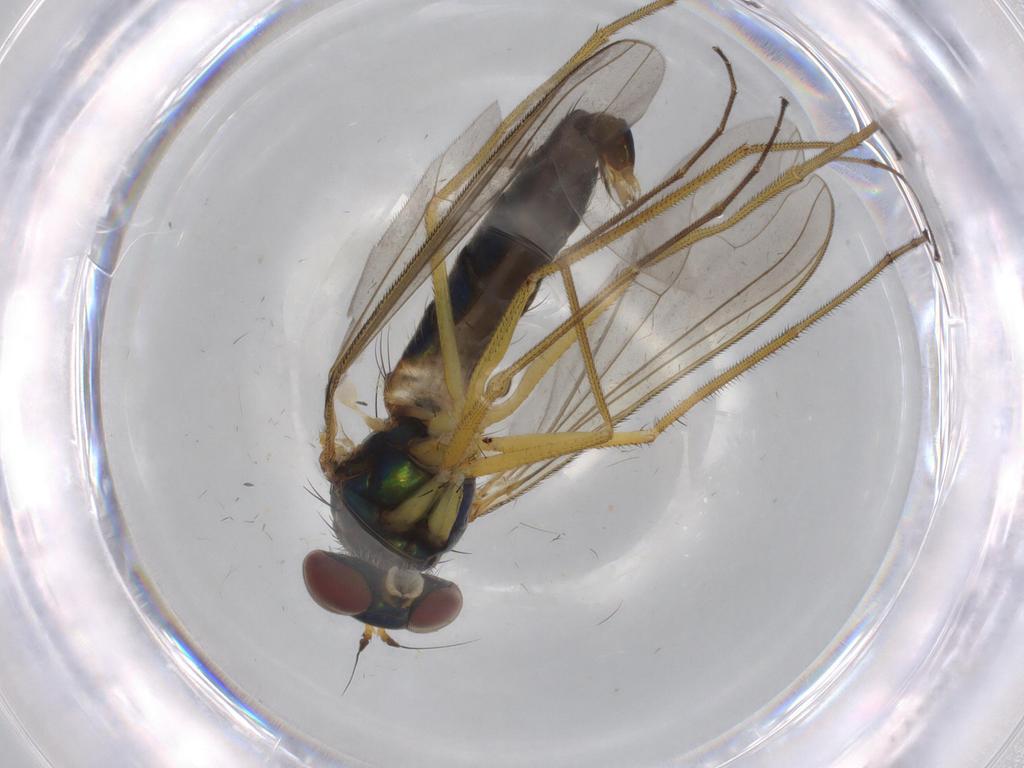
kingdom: Animalia
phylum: Arthropoda
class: Insecta
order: Diptera
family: Dolichopodidae
